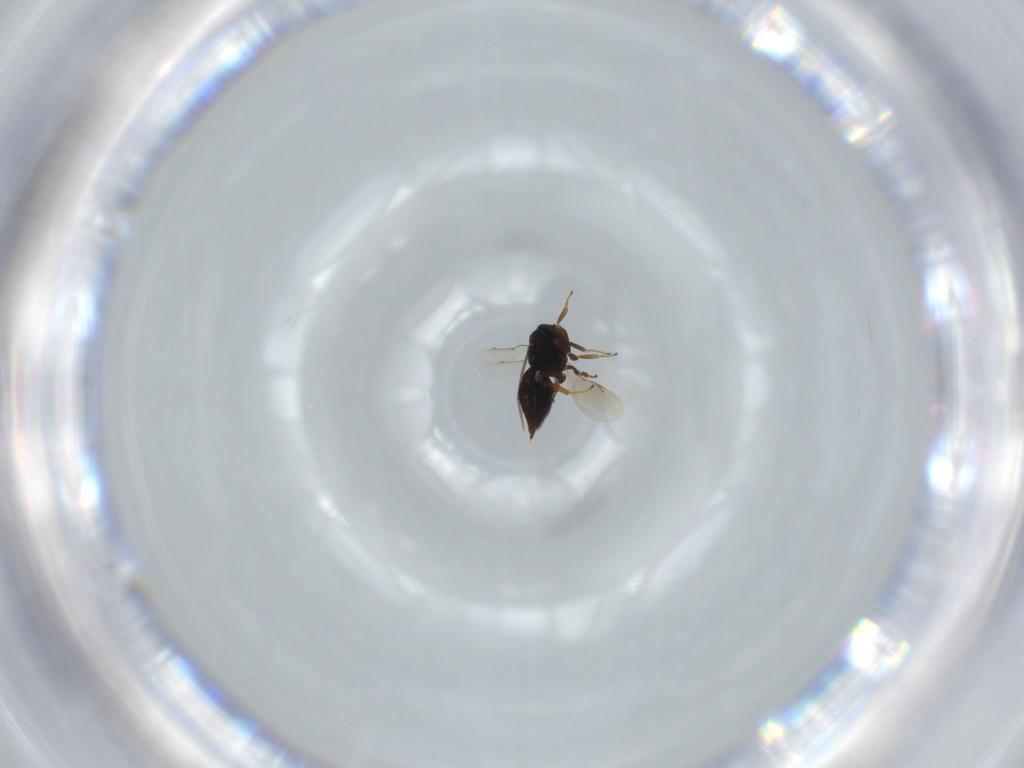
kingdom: Animalia
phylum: Arthropoda
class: Insecta
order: Hymenoptera
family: Eunotidae
